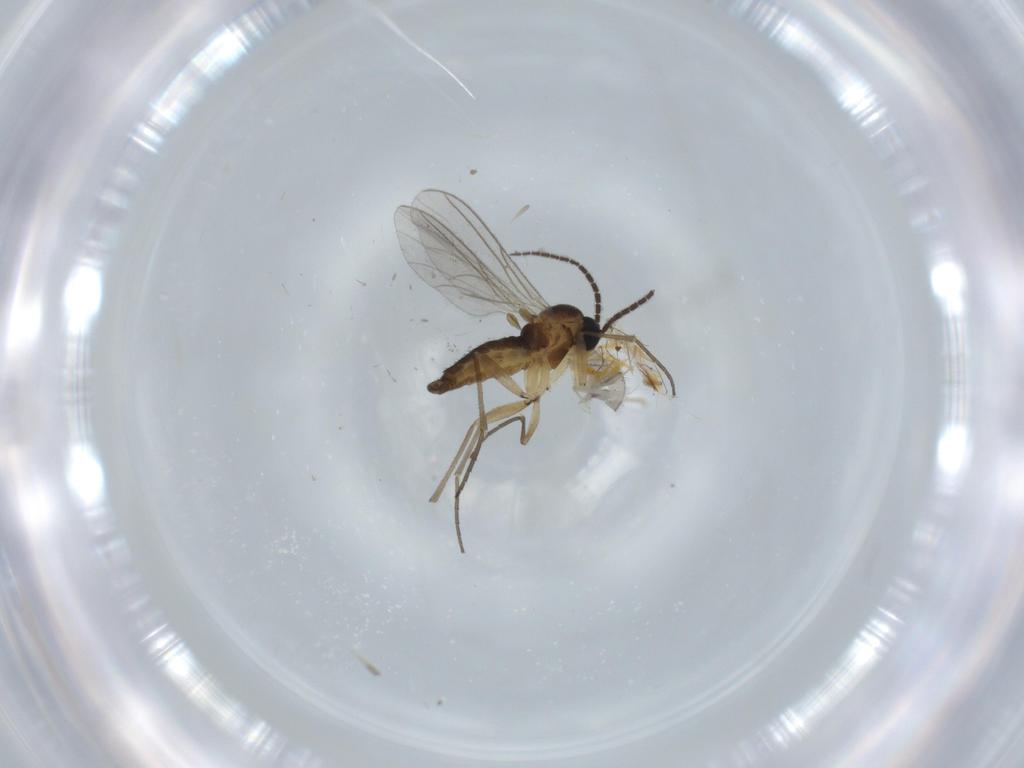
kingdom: Animalia
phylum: Arthropoda
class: Insecta
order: Diptera
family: Cecidomyiidae
